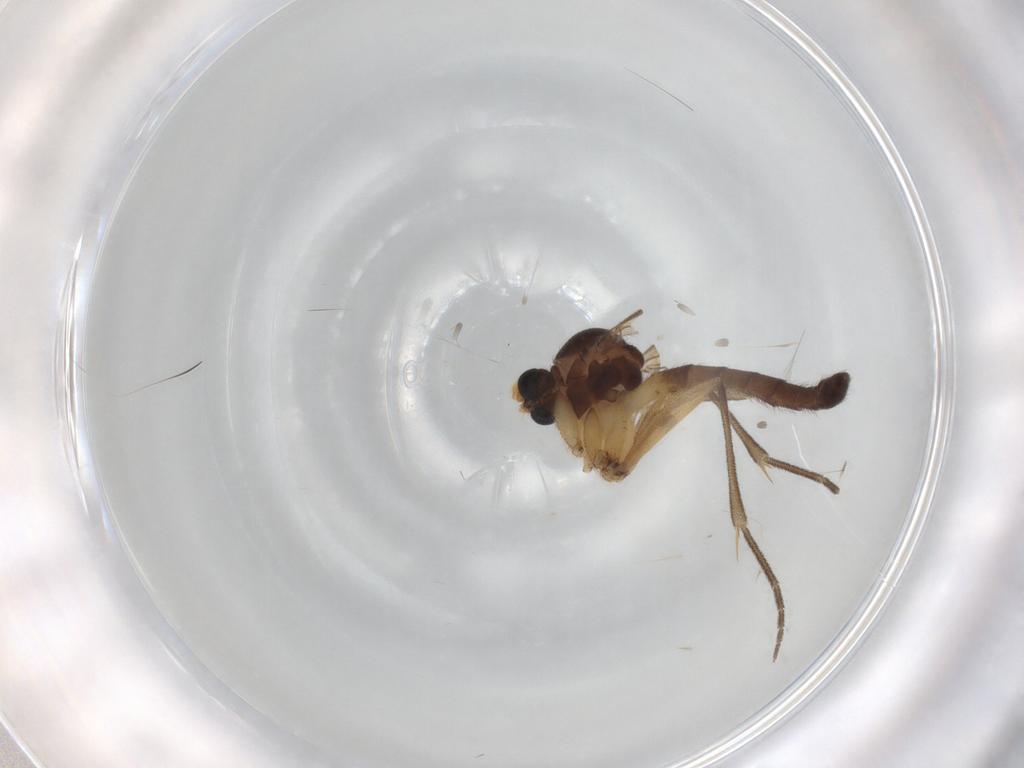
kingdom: Animalia
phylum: Arthropoda
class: Insecta
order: Diptera
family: Mycetophilidae
